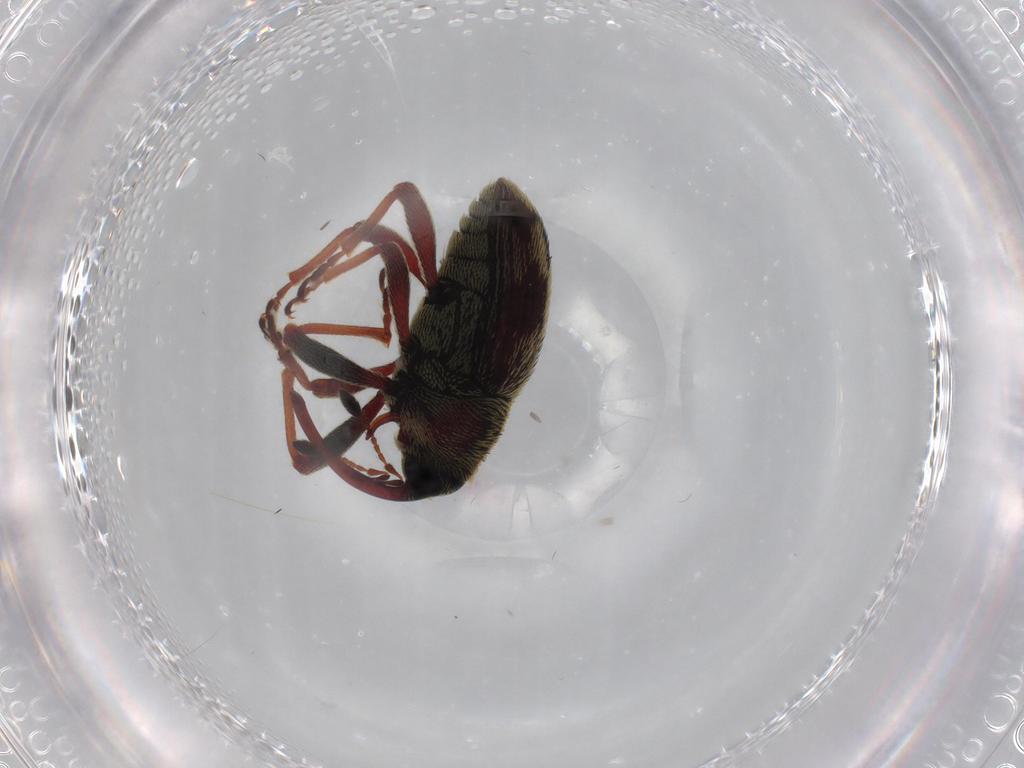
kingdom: Animalia
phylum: Arthropoda
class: Insecta
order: Coleoptera
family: Curculionidae
